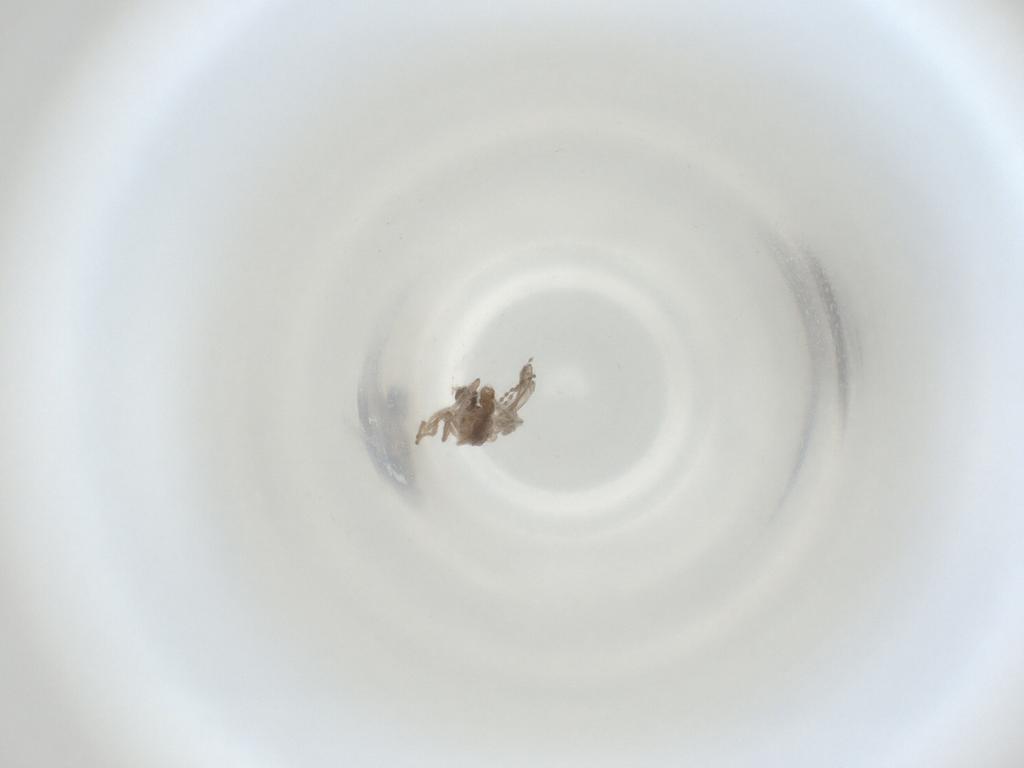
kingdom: Animalia
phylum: Arthropoda
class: Insecta
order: Diptera
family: Cecidomyiidae
